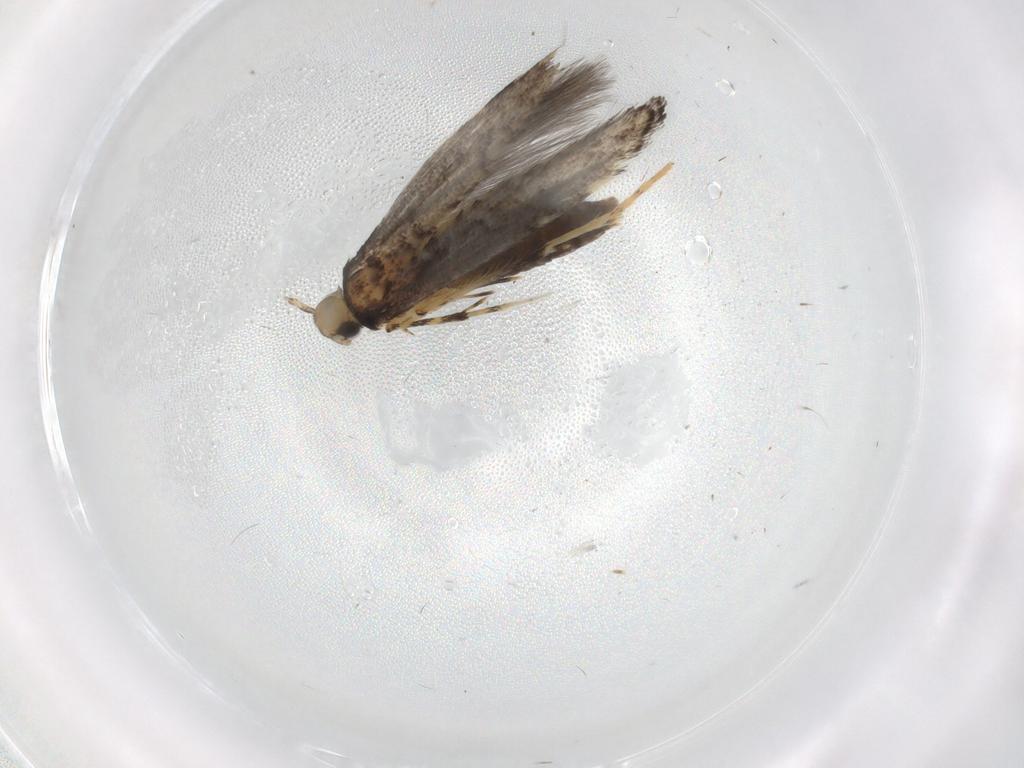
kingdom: Animalia
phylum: Arthropoda
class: Insecta
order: Lepidoptera
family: Gracillariidae
